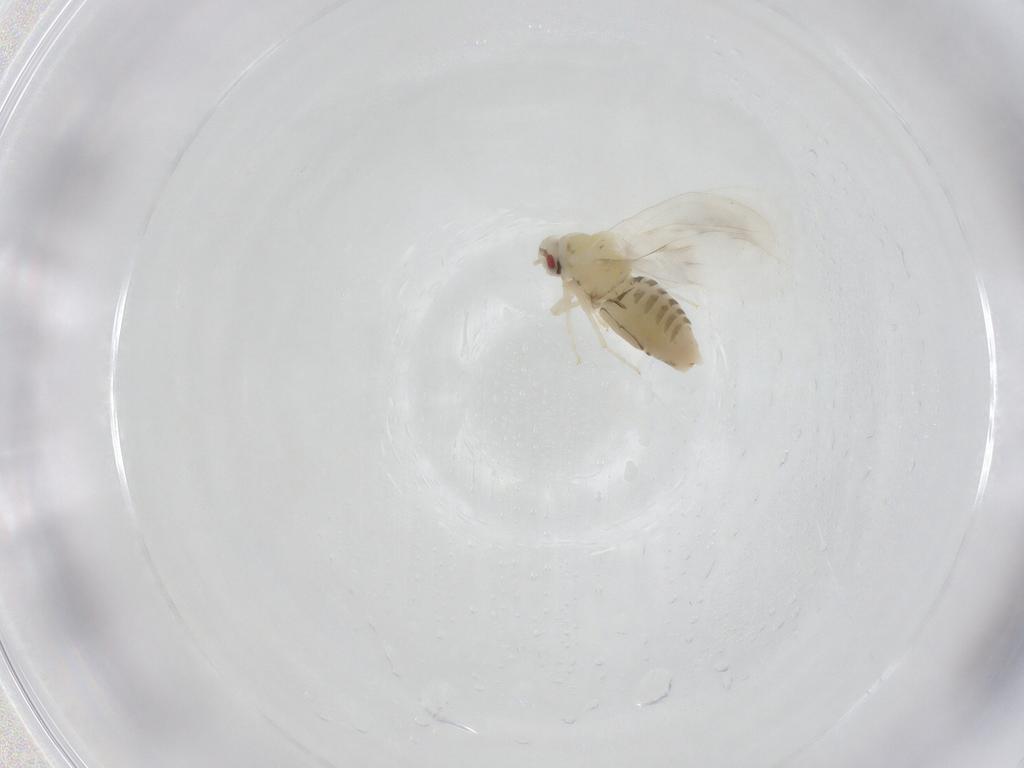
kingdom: Animalia
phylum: Arthropoda
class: Insecta
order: Hemiptera
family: Aleyrodidae
